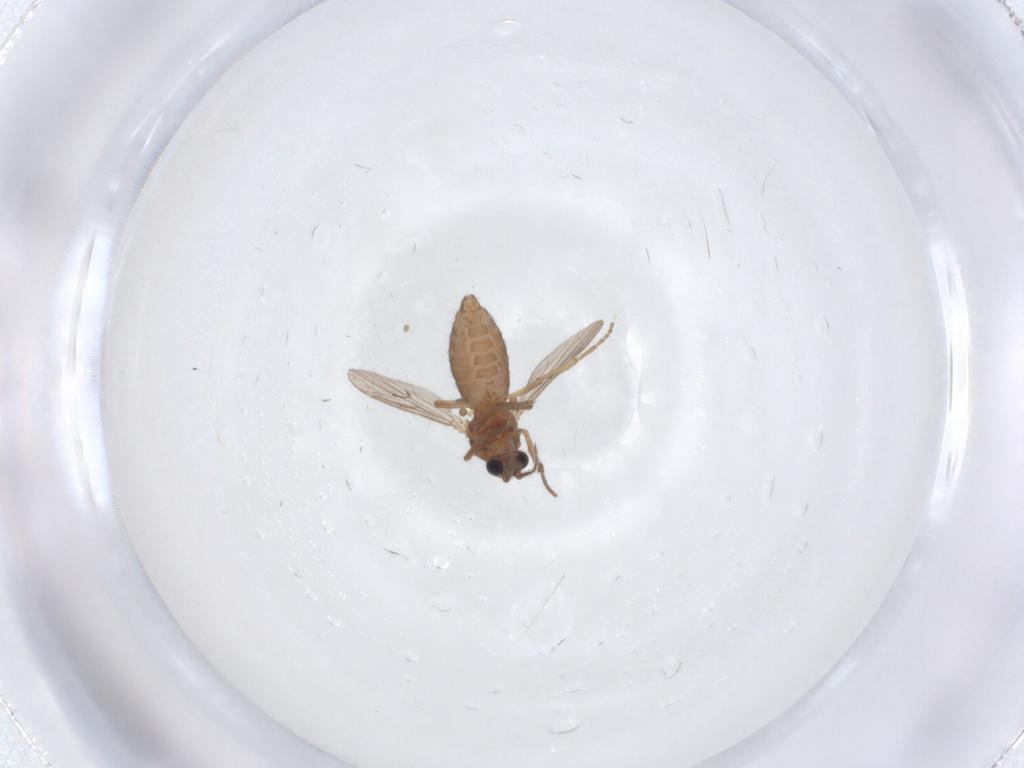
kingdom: Animalia
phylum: Arthropoda
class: Insecta
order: Diptera
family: Ceratopogonidae
